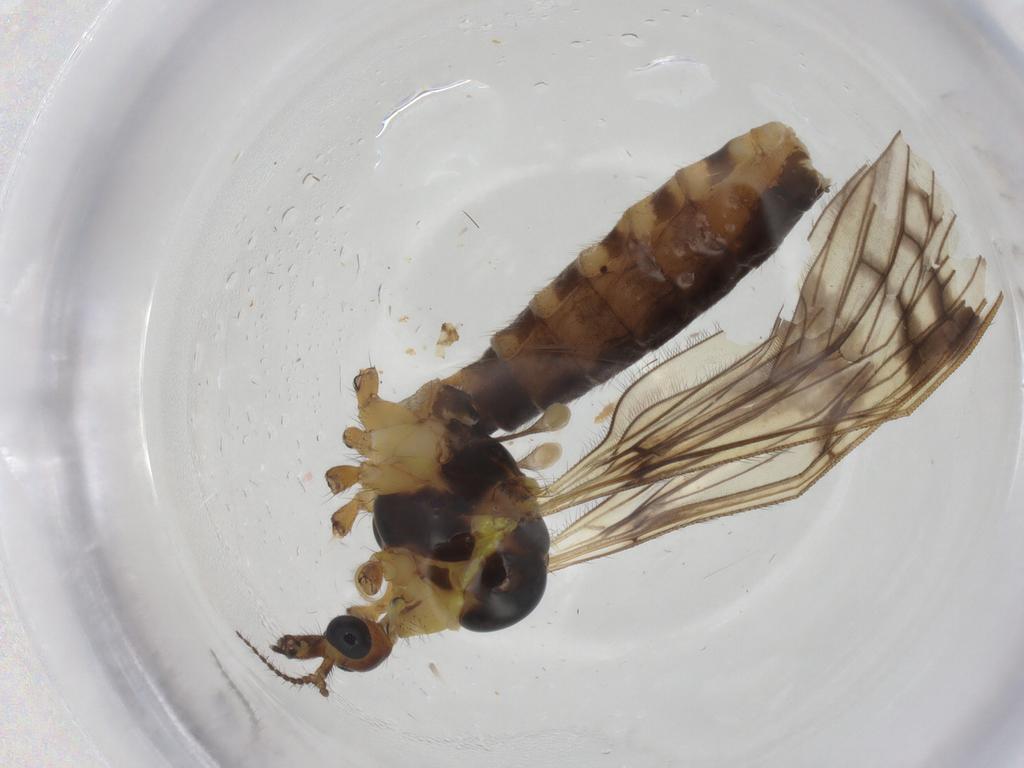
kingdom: Animalia
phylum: Arthropoda
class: Insecta
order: Diptera
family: Limoniidae
